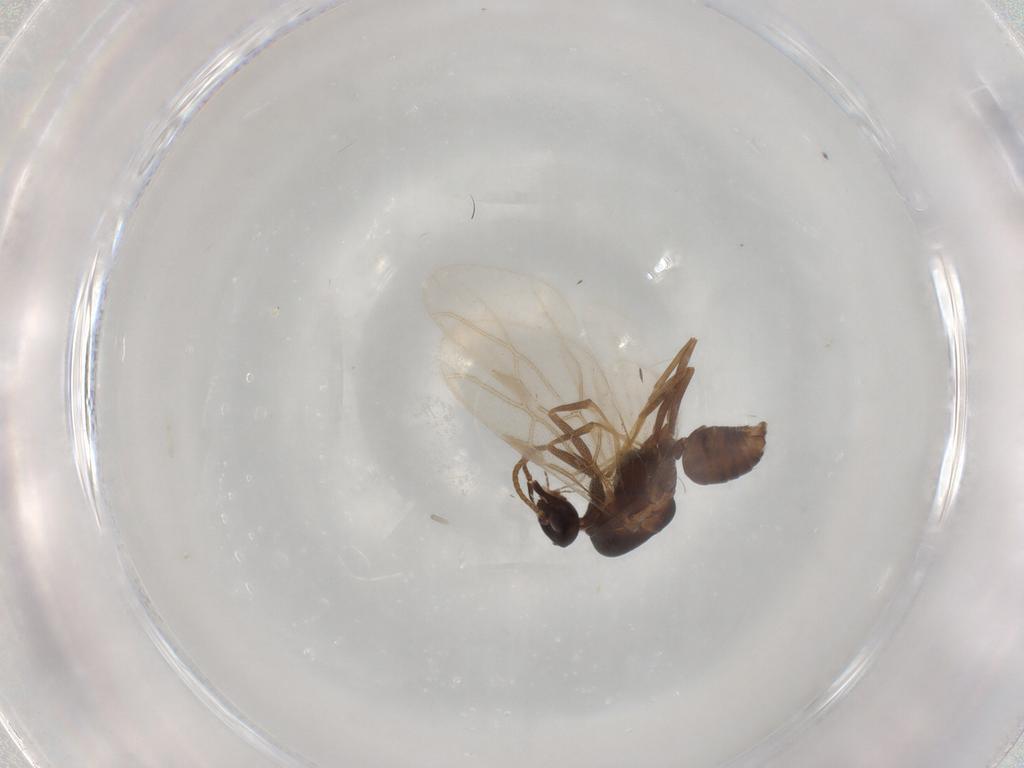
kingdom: Animalia
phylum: Arthropoda
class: Insecta
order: Hymenoptera
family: Formicidae
